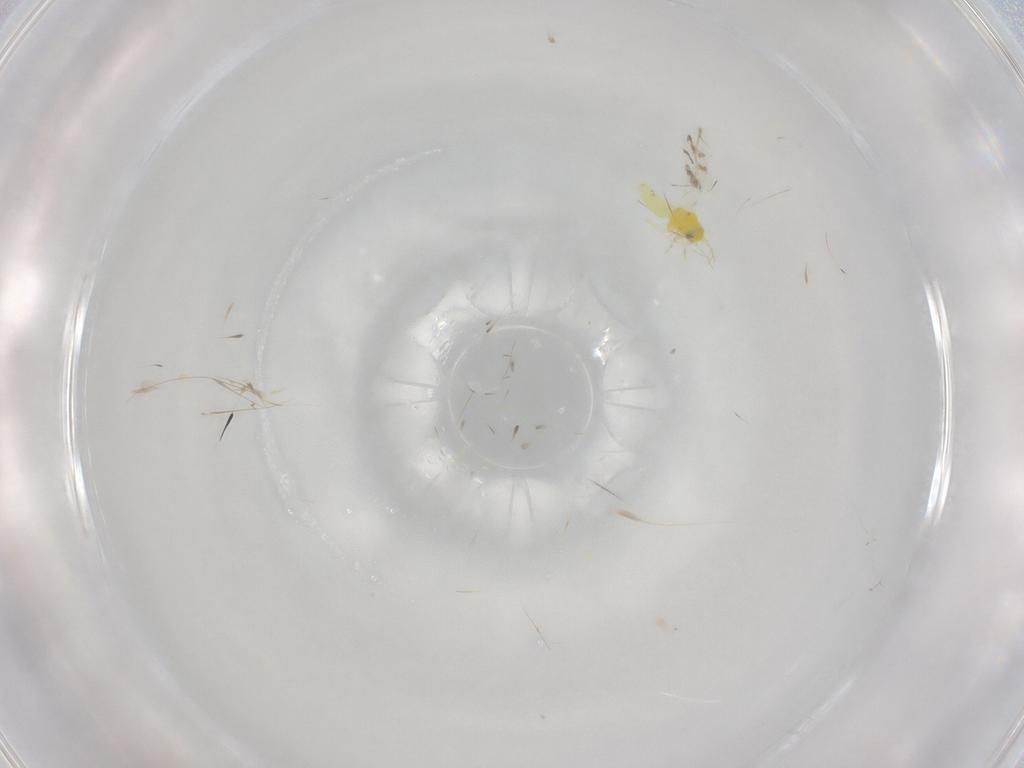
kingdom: Animalia
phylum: Arthropoda
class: Insecta
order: Hemiptera
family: Aleyrodidae
